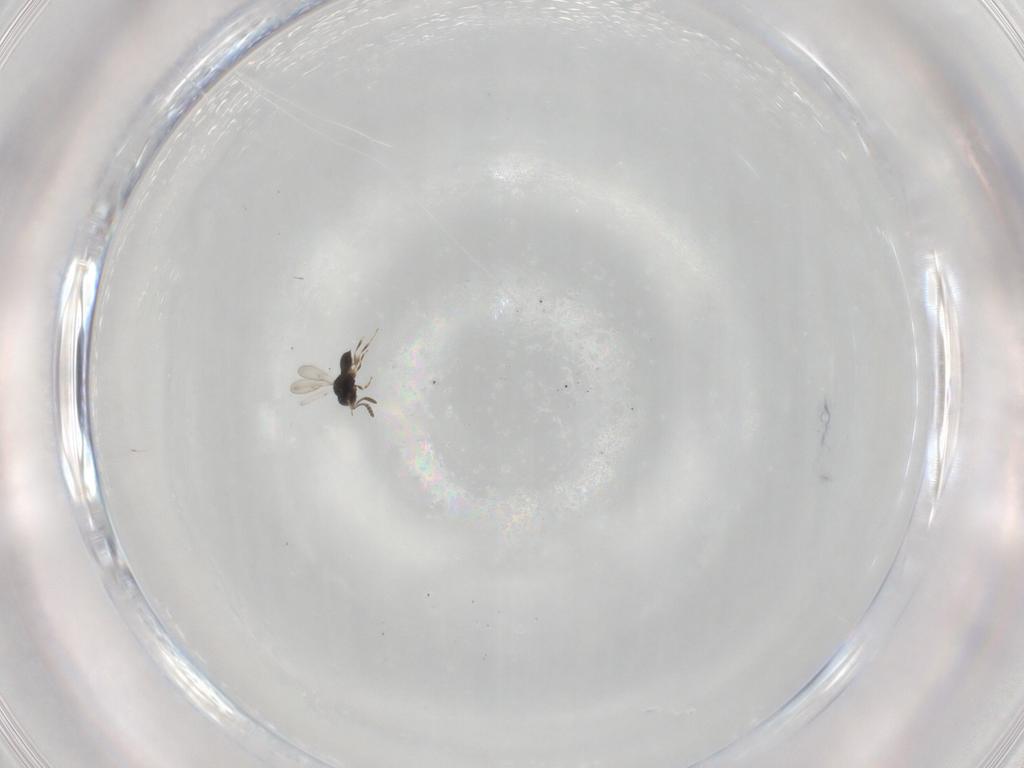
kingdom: Animalia
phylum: Arthropoda
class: Insecta
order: Hymenoptera
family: Scelionidae
